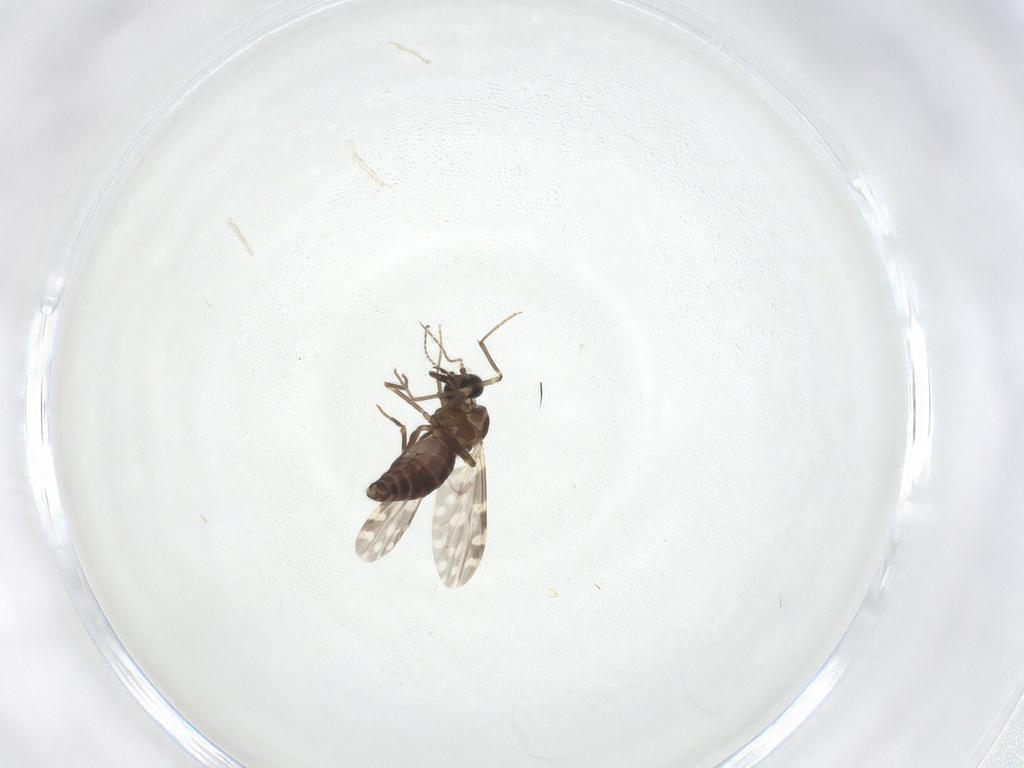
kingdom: Animalia
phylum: Arthropoda
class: Insecta
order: Diptera
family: Ceratopogonidae
